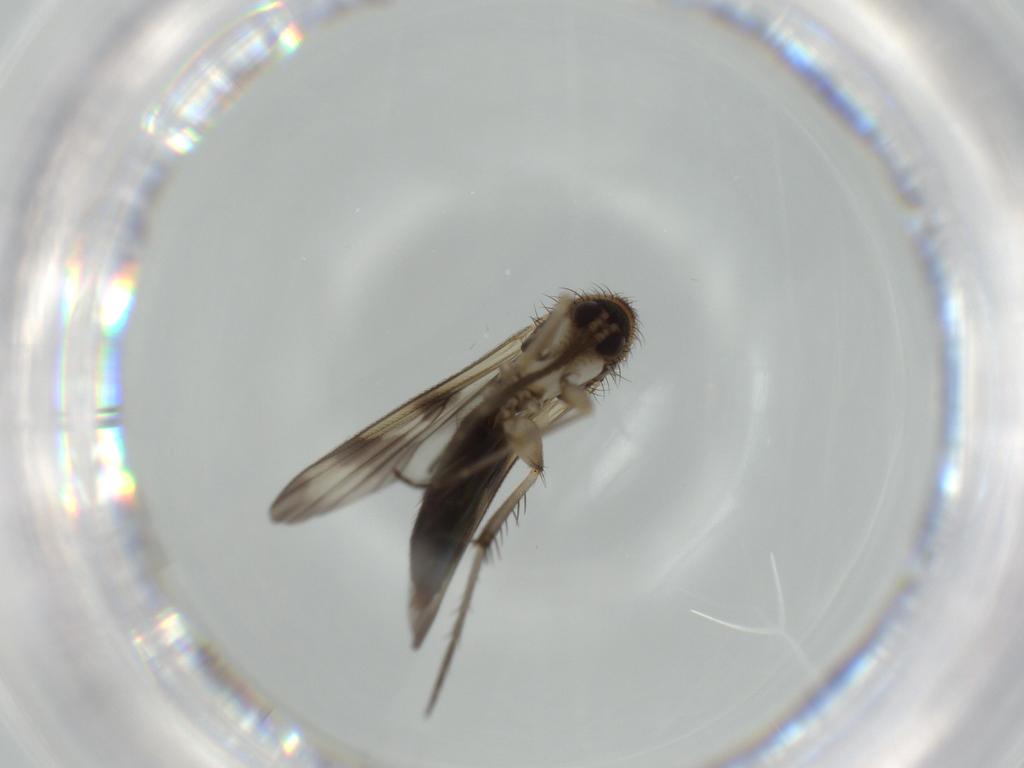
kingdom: Animalia
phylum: Arthropoda
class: Insecta
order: Diptera
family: Mycetophilidae
